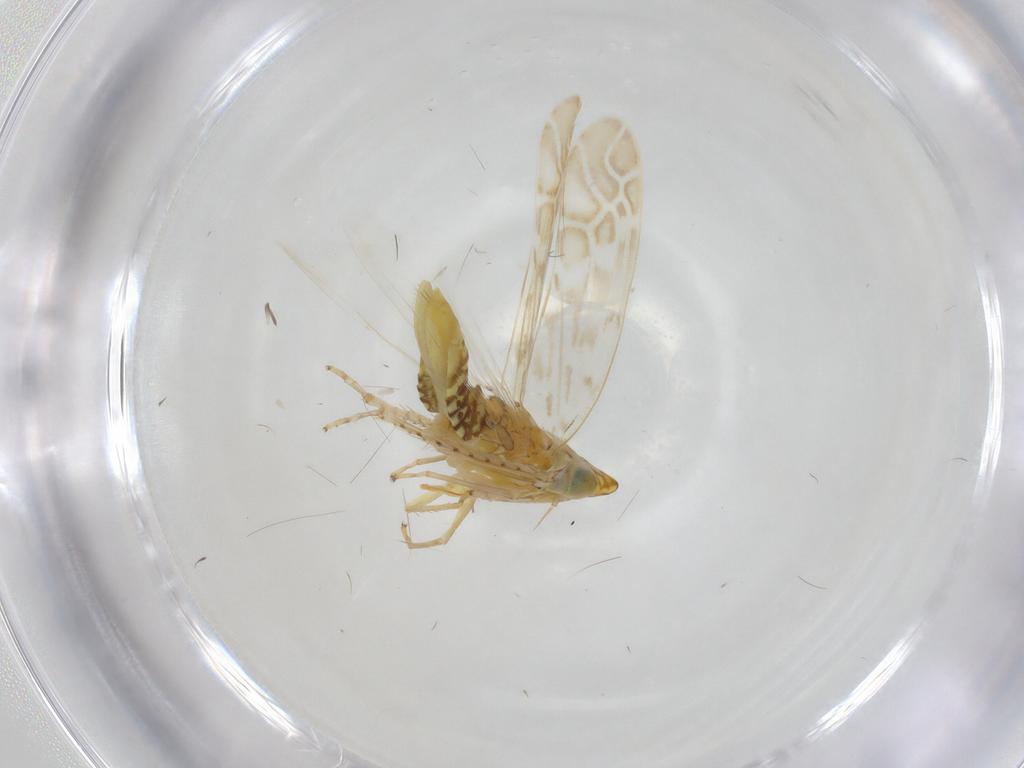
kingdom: Animalia
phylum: Arthropoda
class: Insecta
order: Hemiptera
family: Cicadellidae
